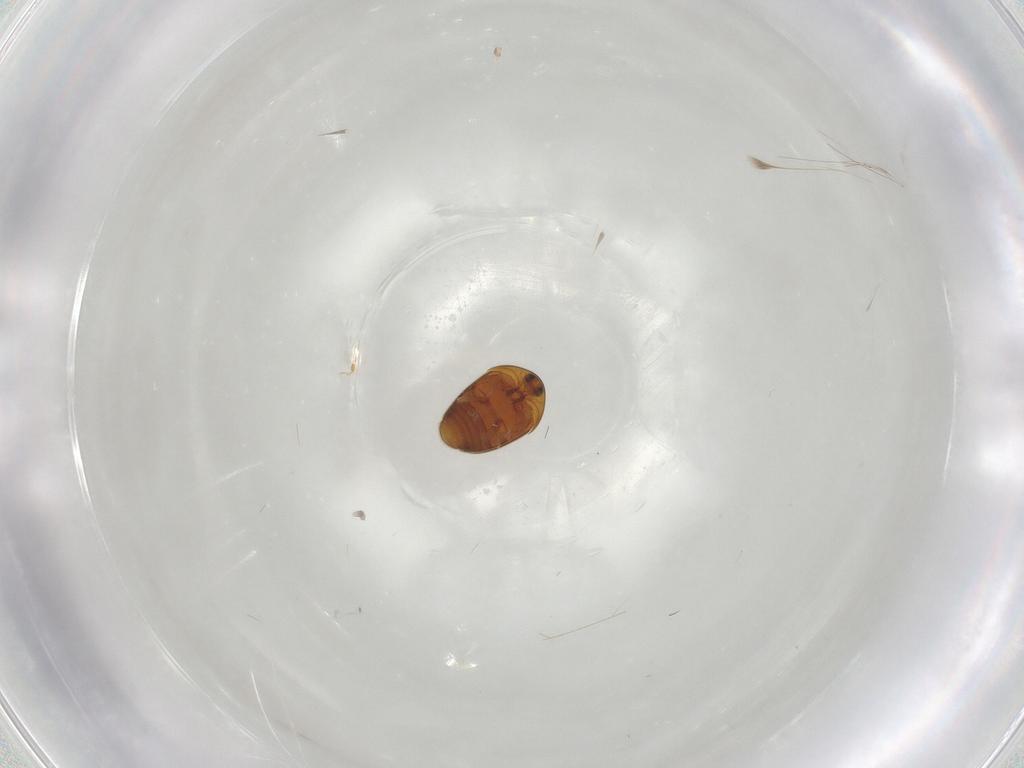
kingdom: Animalia
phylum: Arthropoda
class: Insecta
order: Coleoptera
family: Corylophidae
